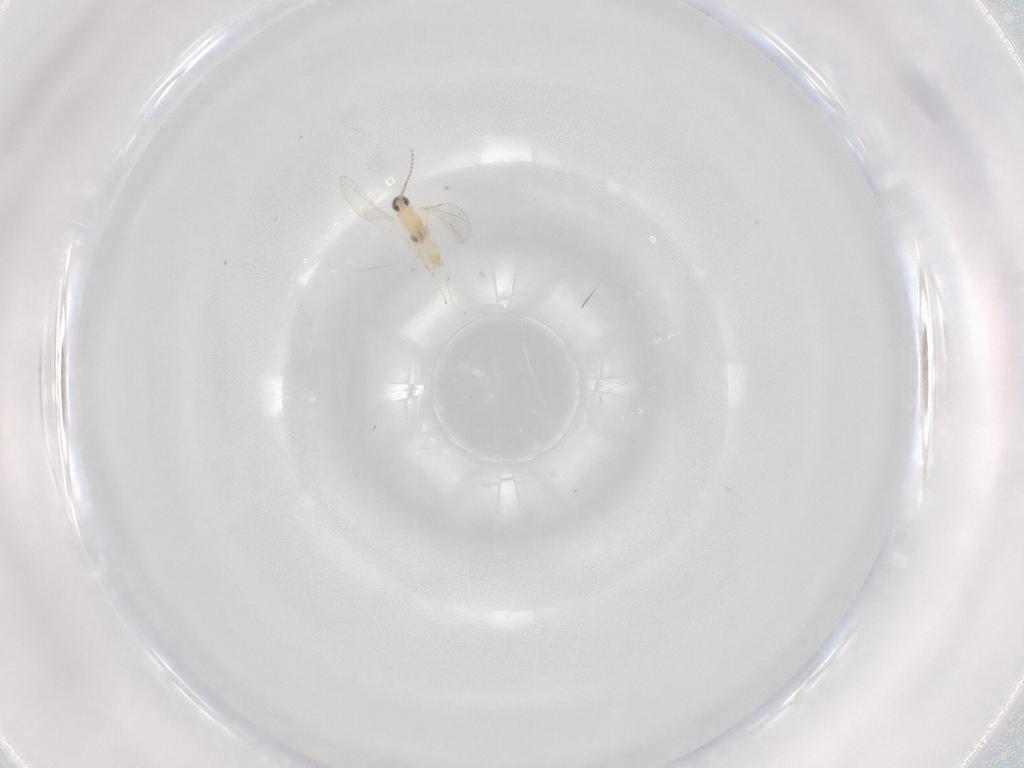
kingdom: Animalia
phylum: Arthropoda
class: Insecta
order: Diptera
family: Cecidomyiidae
